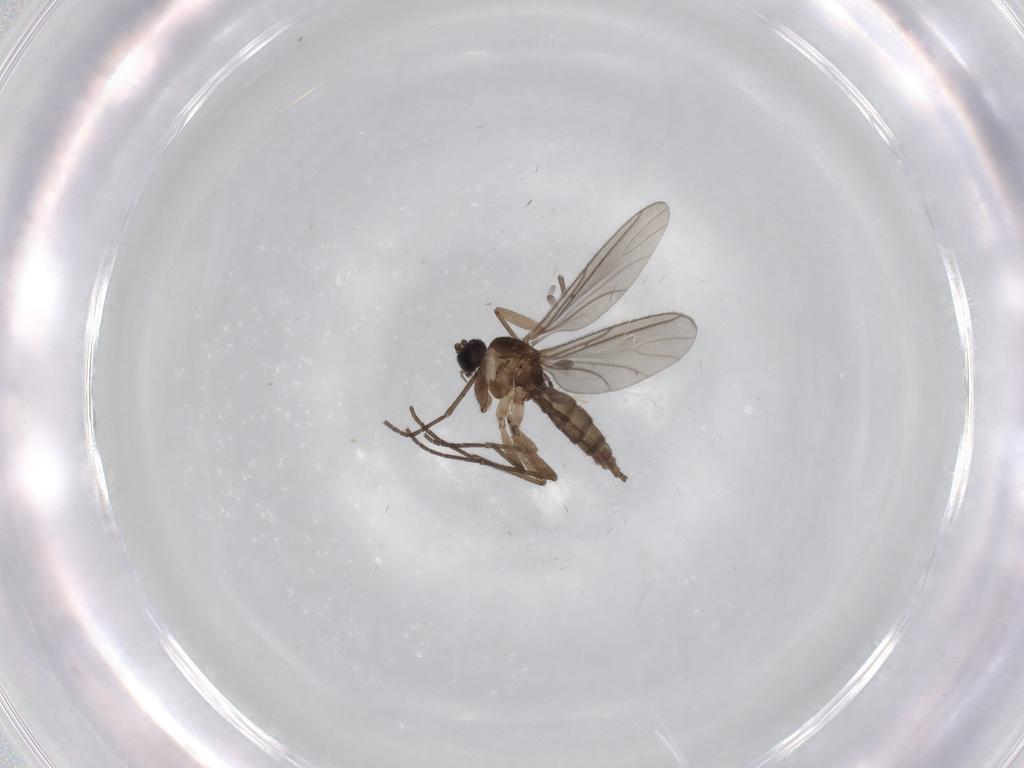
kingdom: Animalia
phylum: Arthropoda
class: Insecta
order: Diptera
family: Sciaridae
